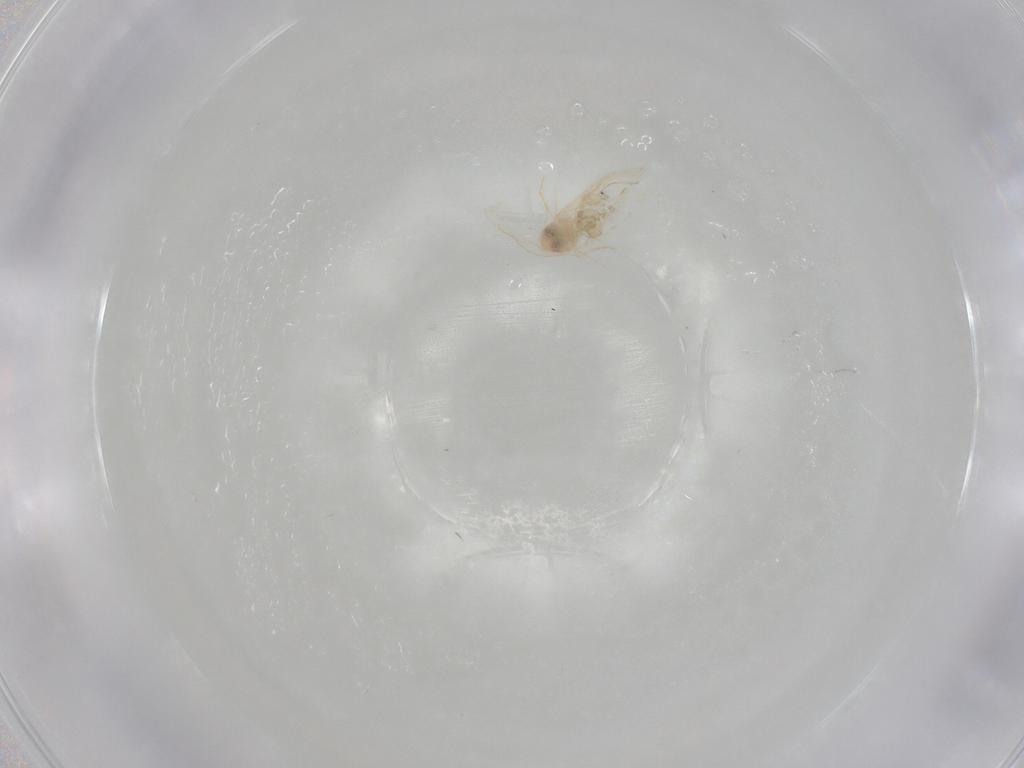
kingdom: Animalia
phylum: Arthropoda
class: Insecta
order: Hemiptera
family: Aleyrodidae
